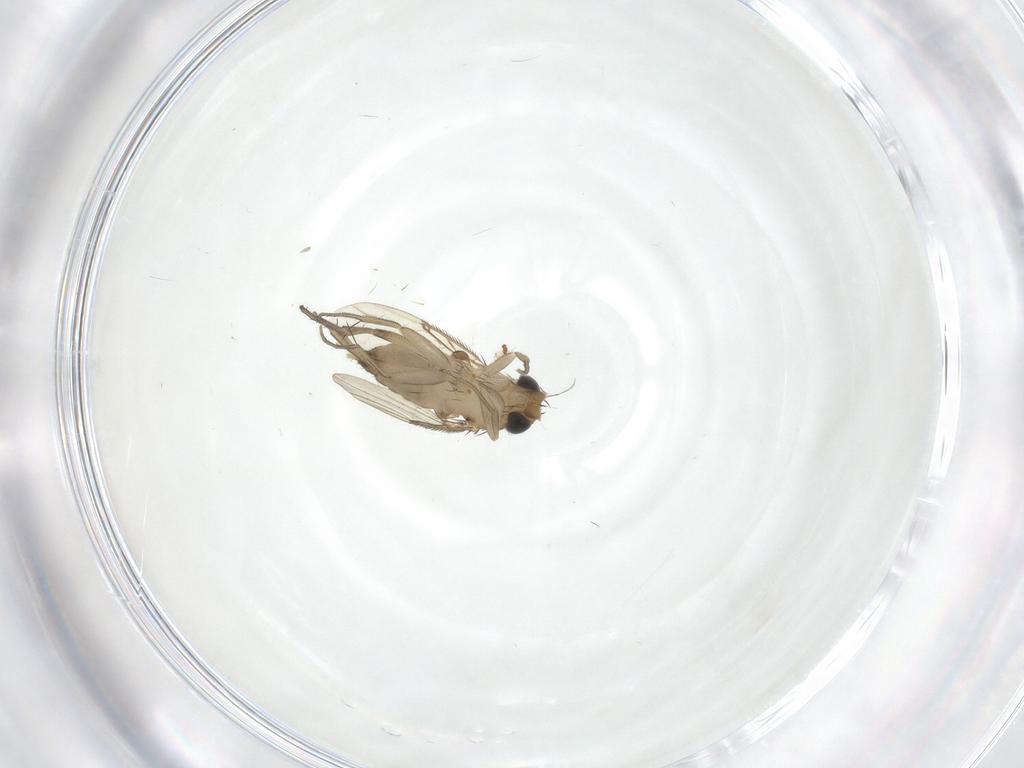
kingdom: Animalia
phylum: Arthropoda
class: Insecta
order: Diptera
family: Phoridae
